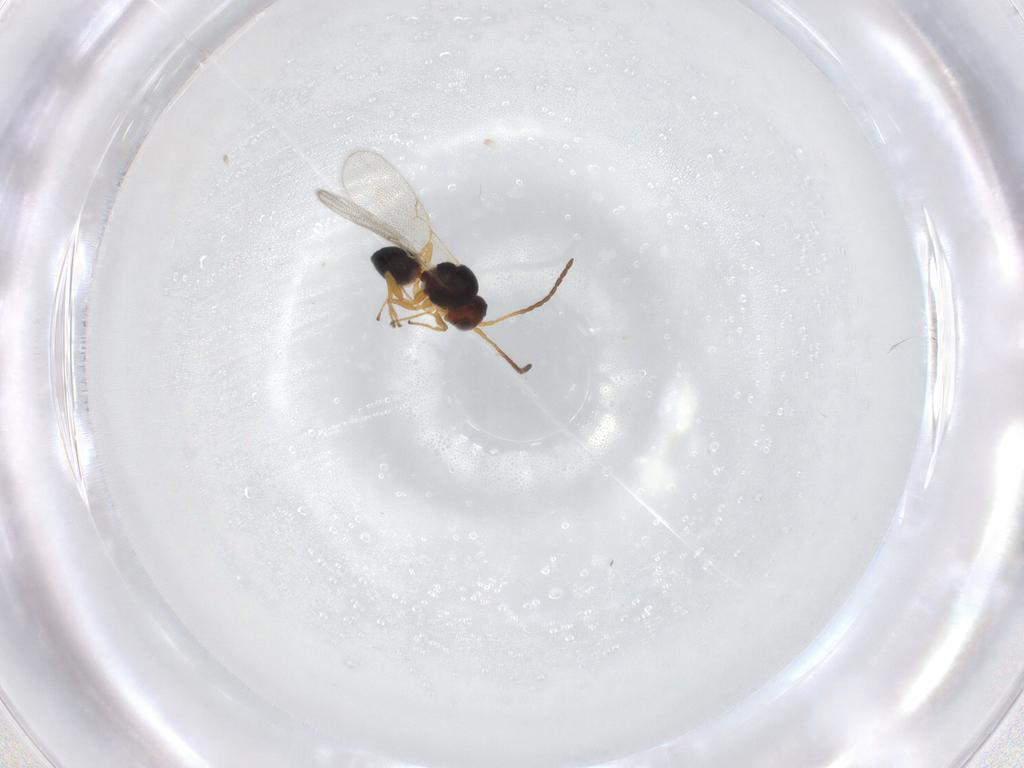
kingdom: Animalia
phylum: Arthropoda
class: Insecta
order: Hymenoptera
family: Figitidae
